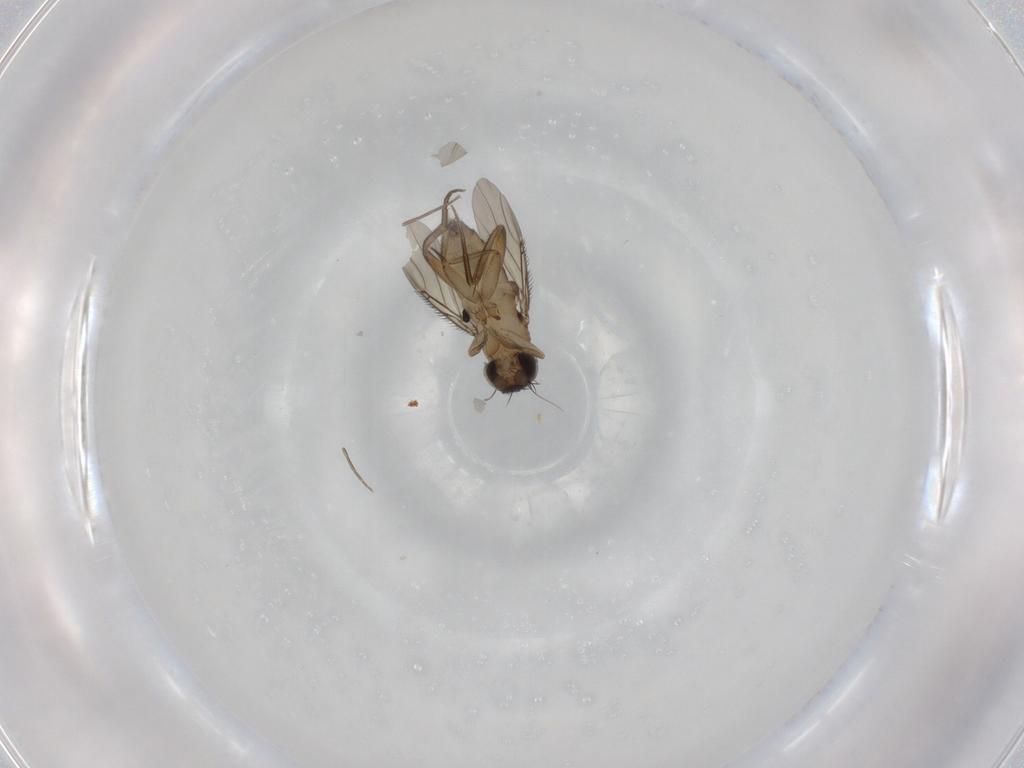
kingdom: Animalia
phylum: Arthropoda
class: Insecta
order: Diptera
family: Phoridae
